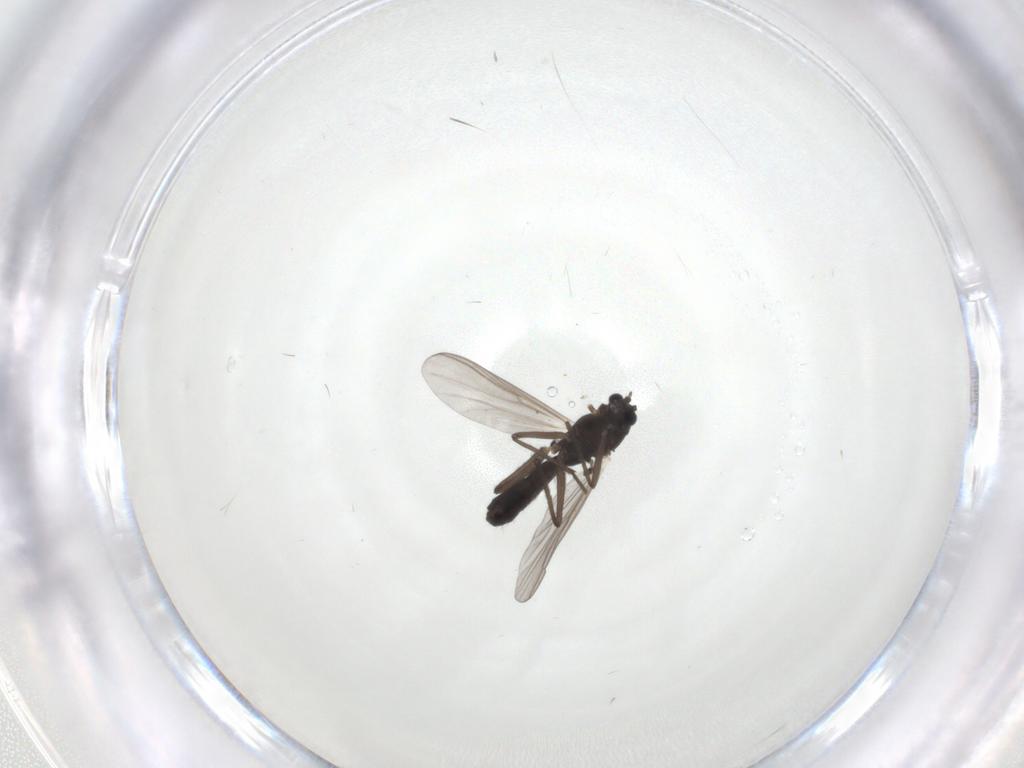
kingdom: Animalia
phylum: Arthropoda
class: Insecta
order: Diptera
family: Chironomidae
